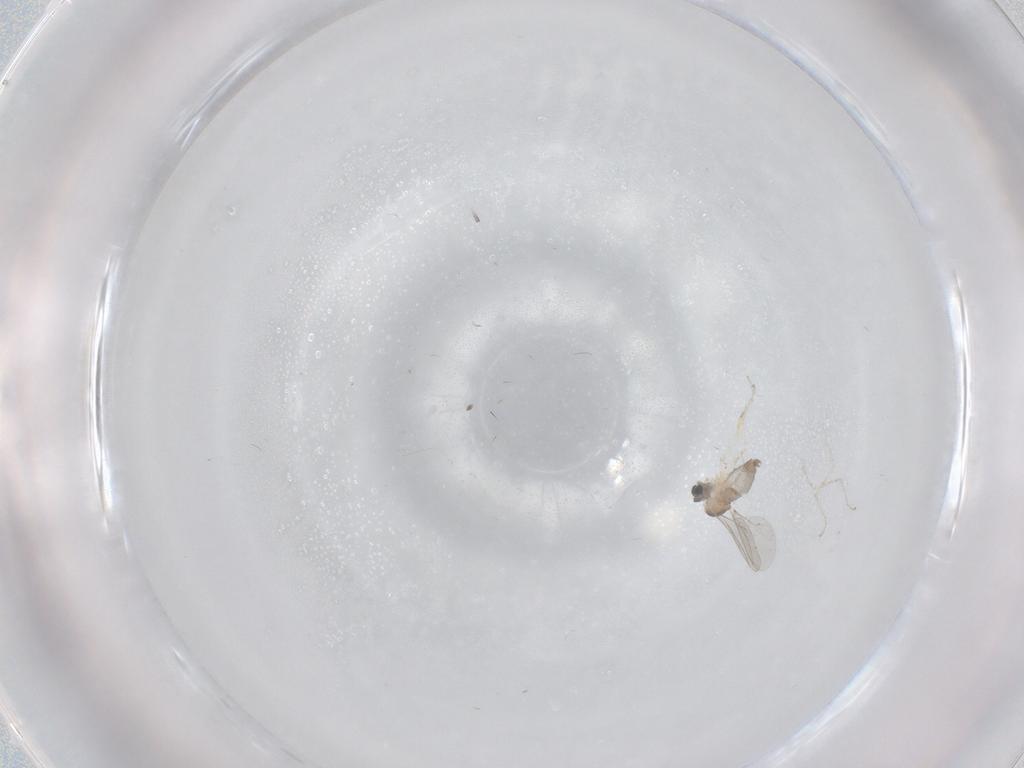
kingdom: Animalia
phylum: Arthropoda
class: Insecta
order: Diptera
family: Cecidomyiidae
